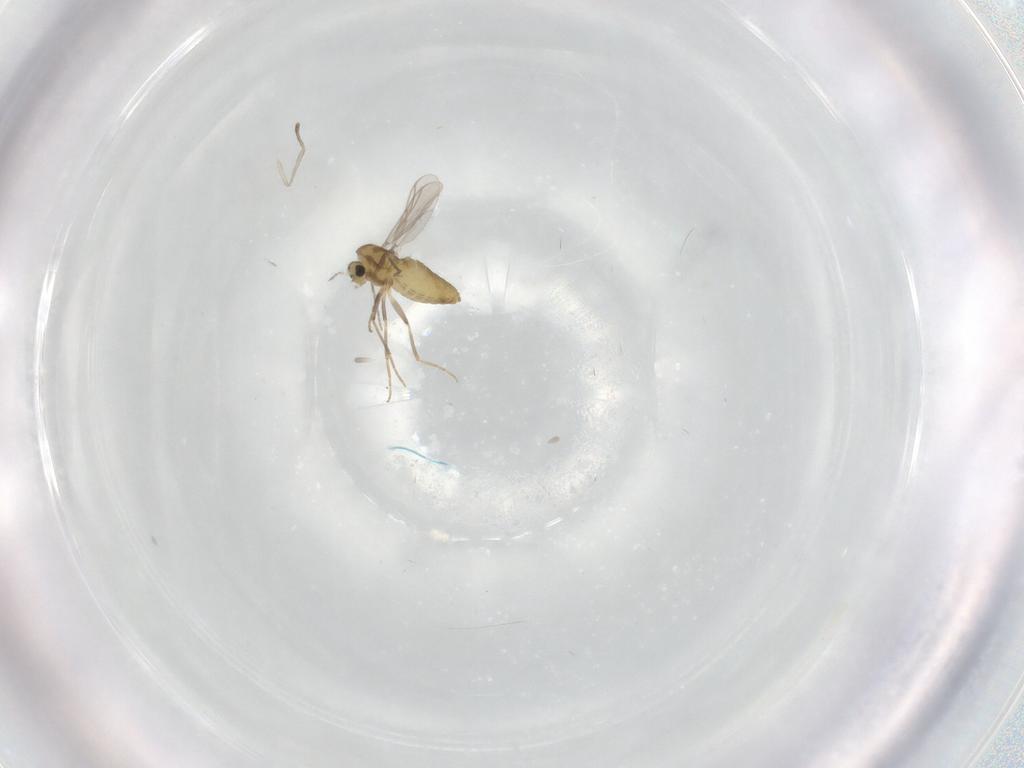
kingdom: Animalia
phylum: Arthropoda
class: Insecta
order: Diptera
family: Chironomidae
